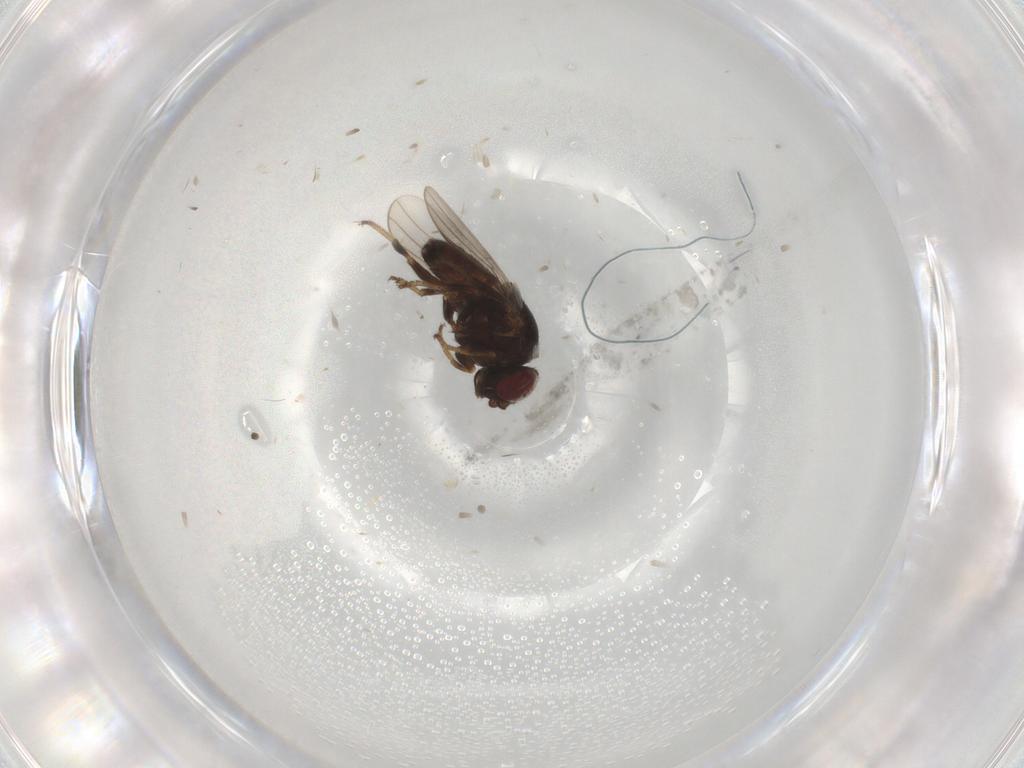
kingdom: Animalia
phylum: Arthropoda
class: Insecta
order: Diptera
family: Chloropidae
